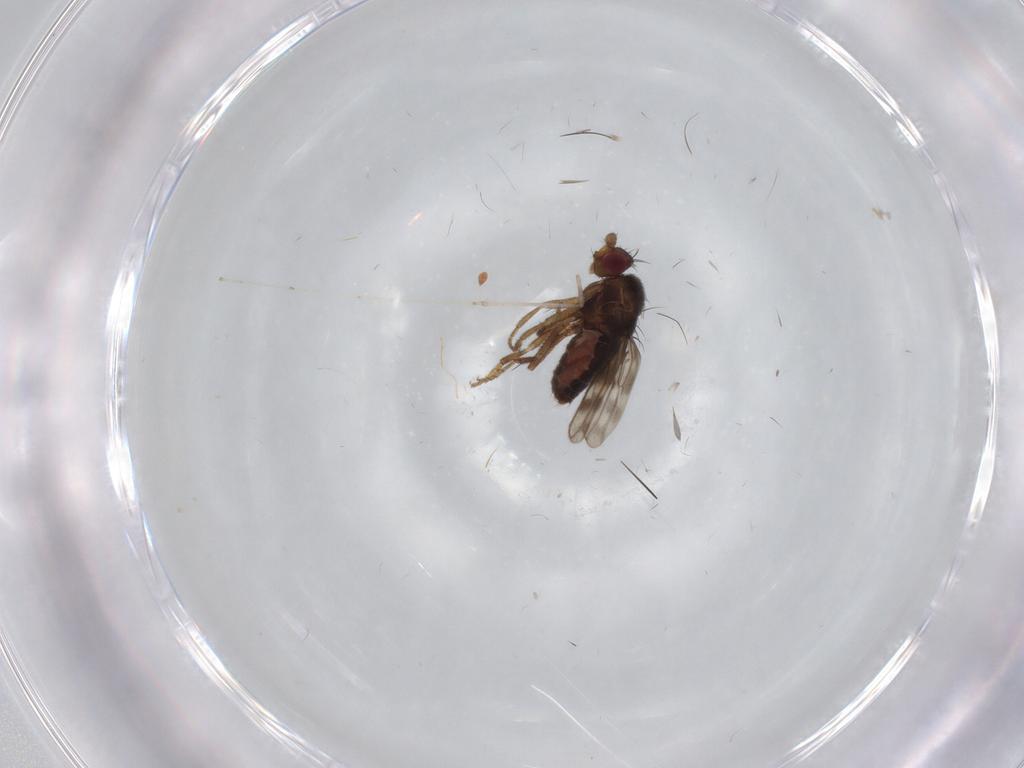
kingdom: Animalia
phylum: Arthropoda
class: Insecta
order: Diptera
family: Sphaeroceridae
